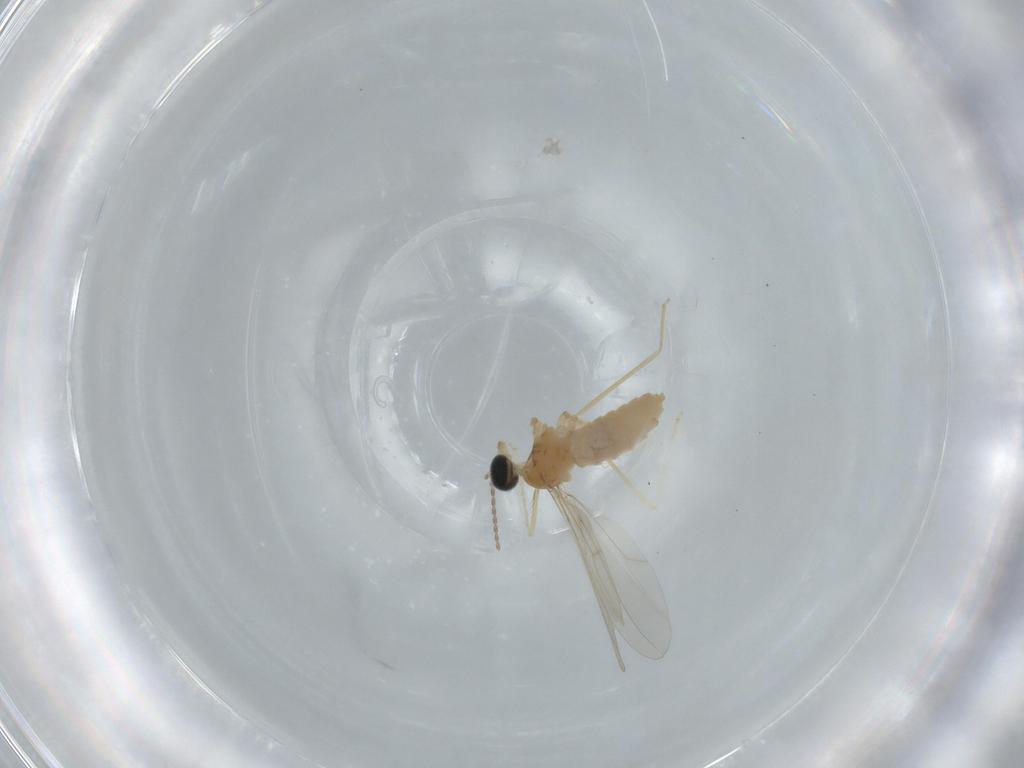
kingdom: Animalia
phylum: Arthropoda
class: Insecta
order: Diptera
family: Cecidomyiidae
